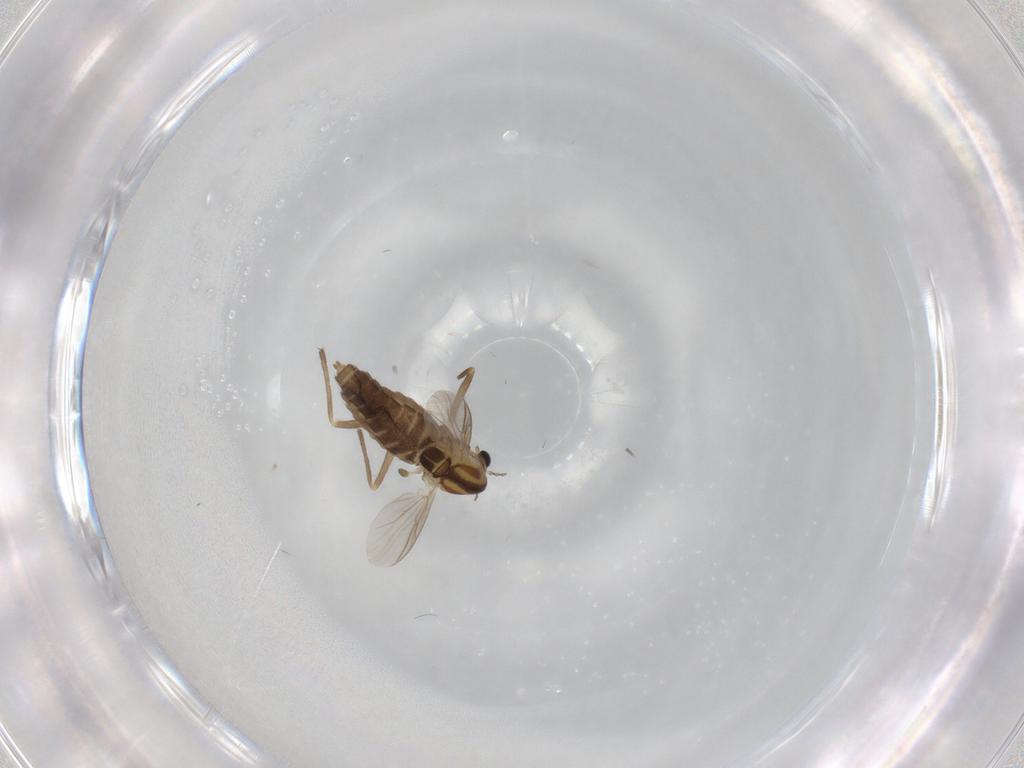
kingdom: Animalia
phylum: Arthropoda
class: Insecta
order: Diptera
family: Chironomidae
